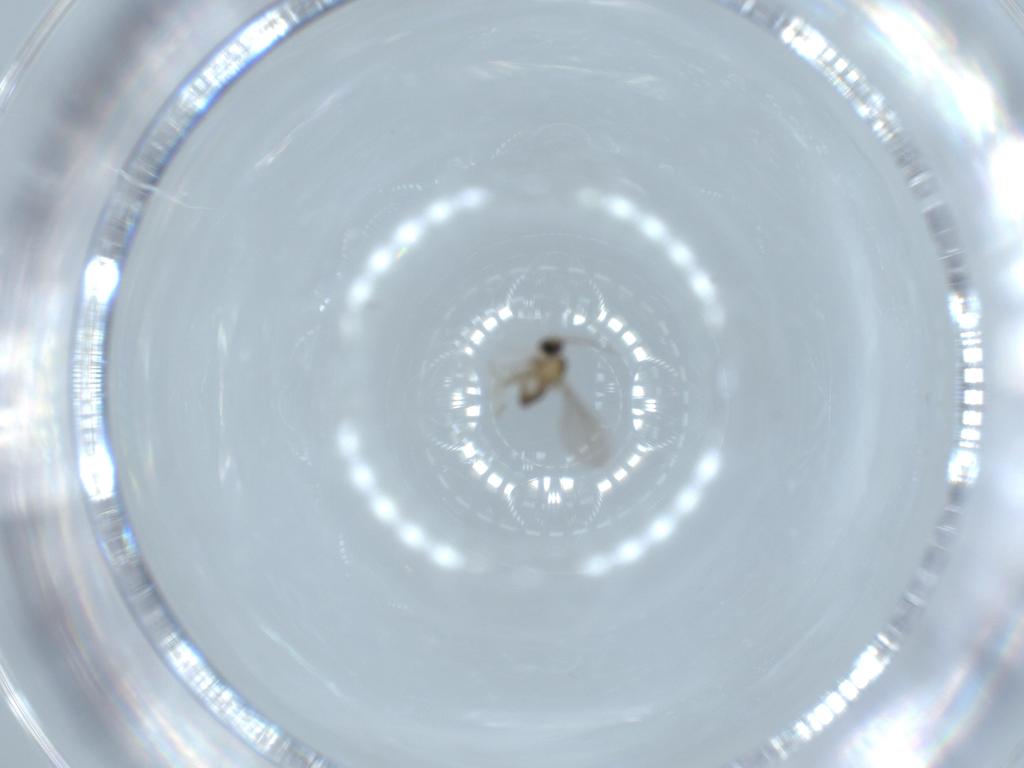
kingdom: Animalia
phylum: Arthropoda
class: Insecta
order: Diptera
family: Cecidomyiidae
